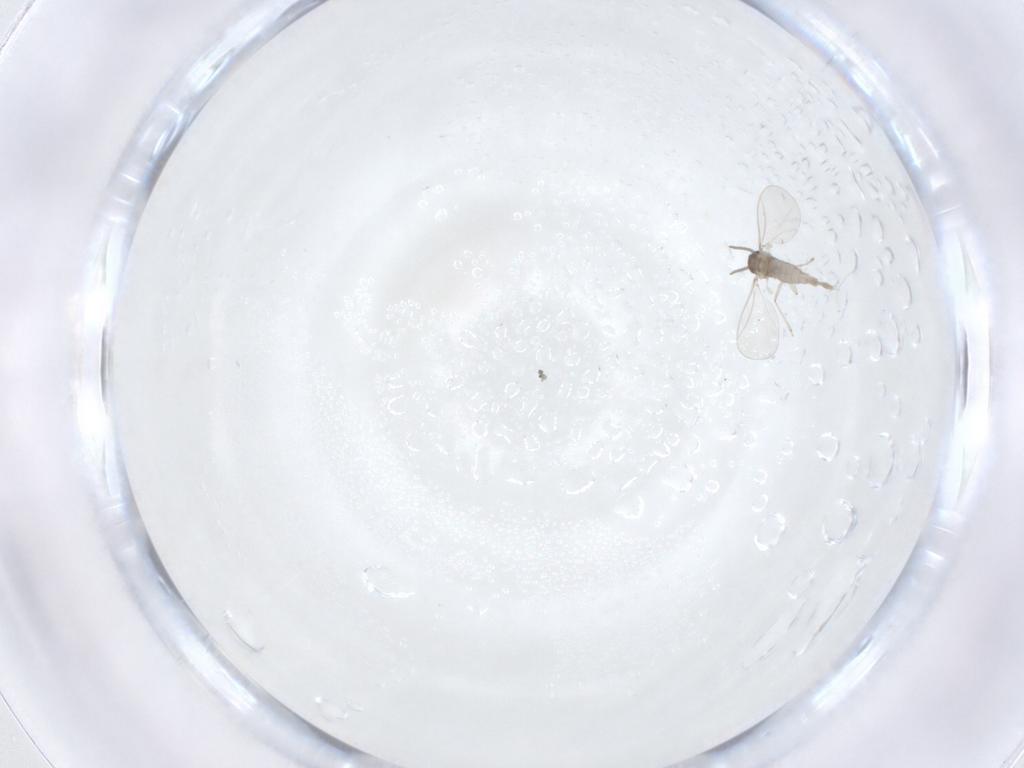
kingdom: Animalia
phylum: Arthropoda
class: Insecta
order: Diptera
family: Cecidomyiidae
